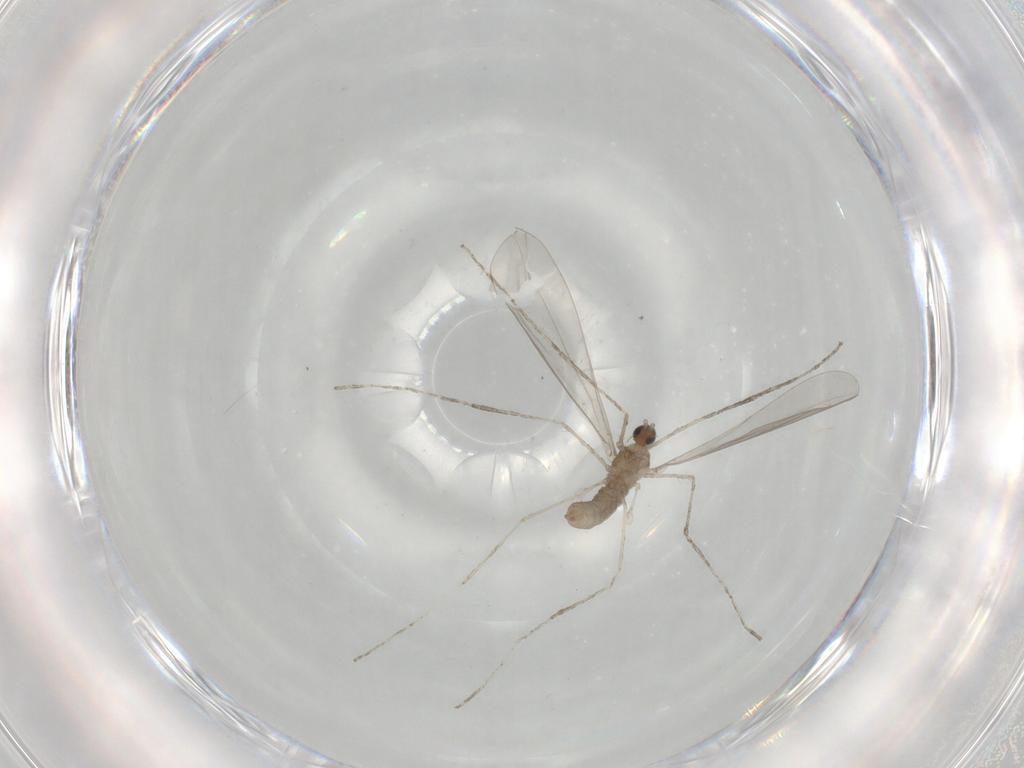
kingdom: Animalia
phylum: Arthropoda
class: Insecta
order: Diptera
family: Cecidomyiidae
